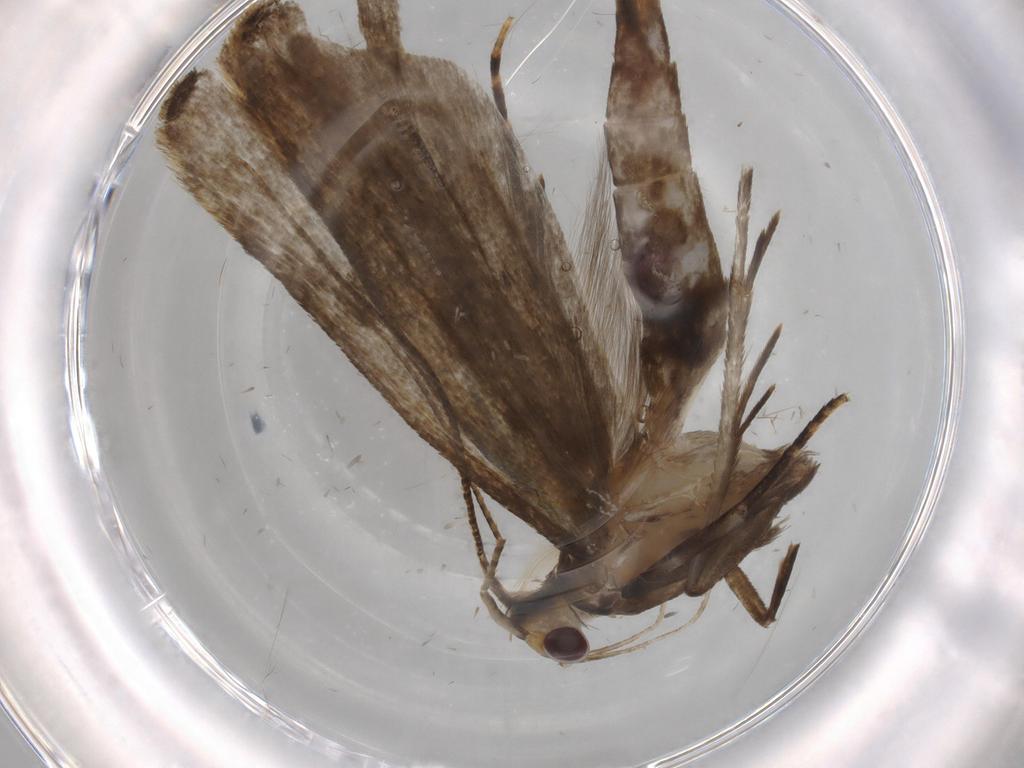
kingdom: Animalia
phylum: Arthropoda
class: Insecta
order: Lepidoptera
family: Gelechiidae
